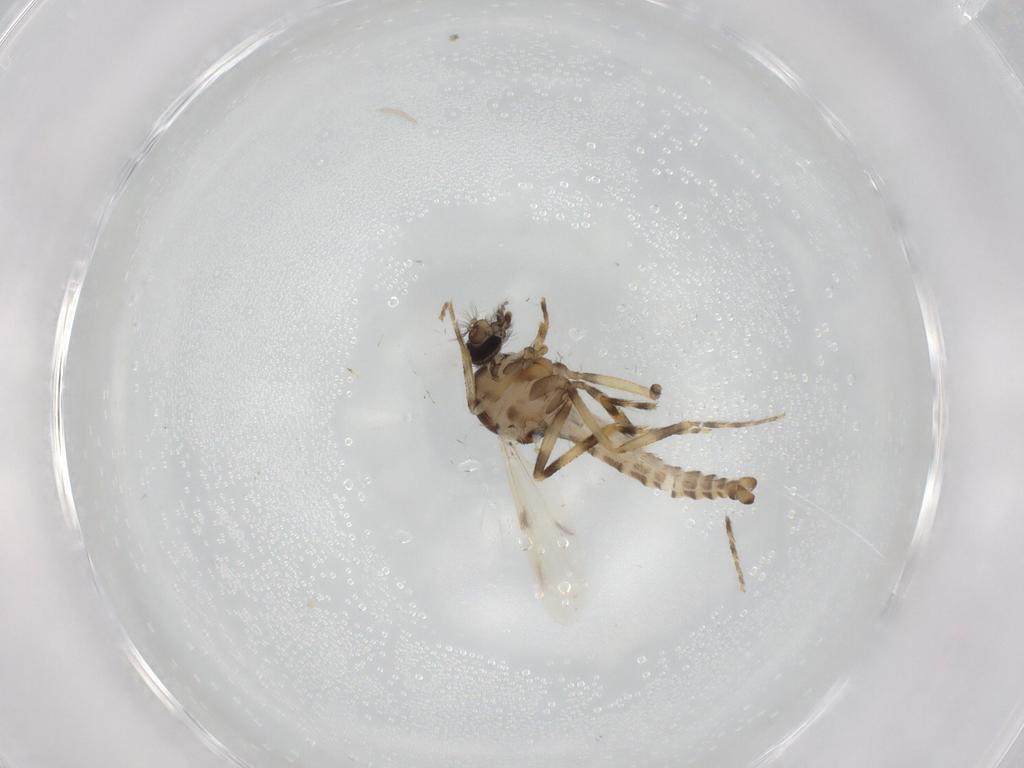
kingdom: Animalia
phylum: Arthropoda
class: Insecta
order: Diptera
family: Ceratopogonidae
